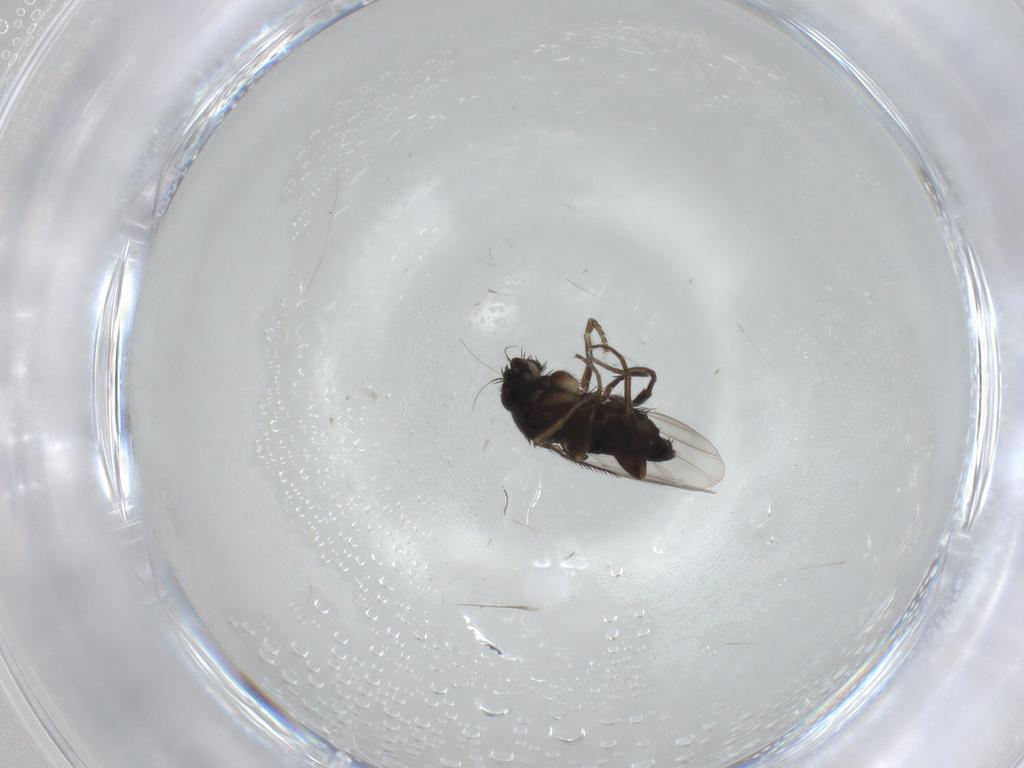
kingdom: Animalia
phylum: Arthropoda
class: Insecta
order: Diptera
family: Phoridae
